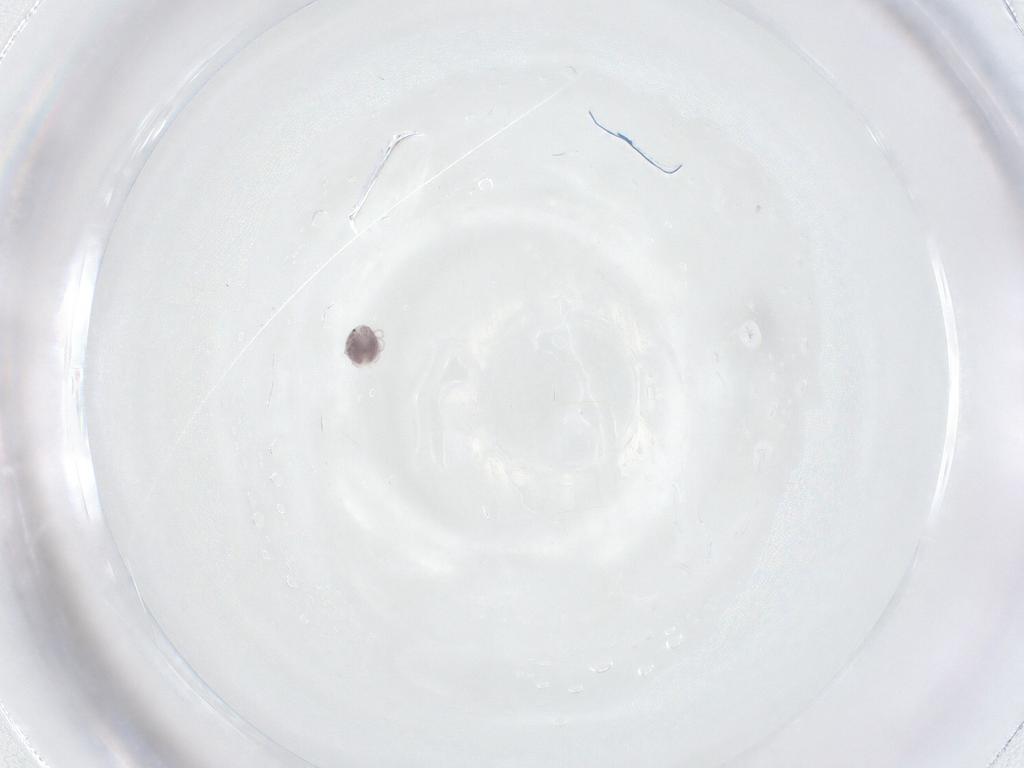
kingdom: Animalia
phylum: Arthropoda
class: Arachnida
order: Trombidiformes
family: Pionidae
